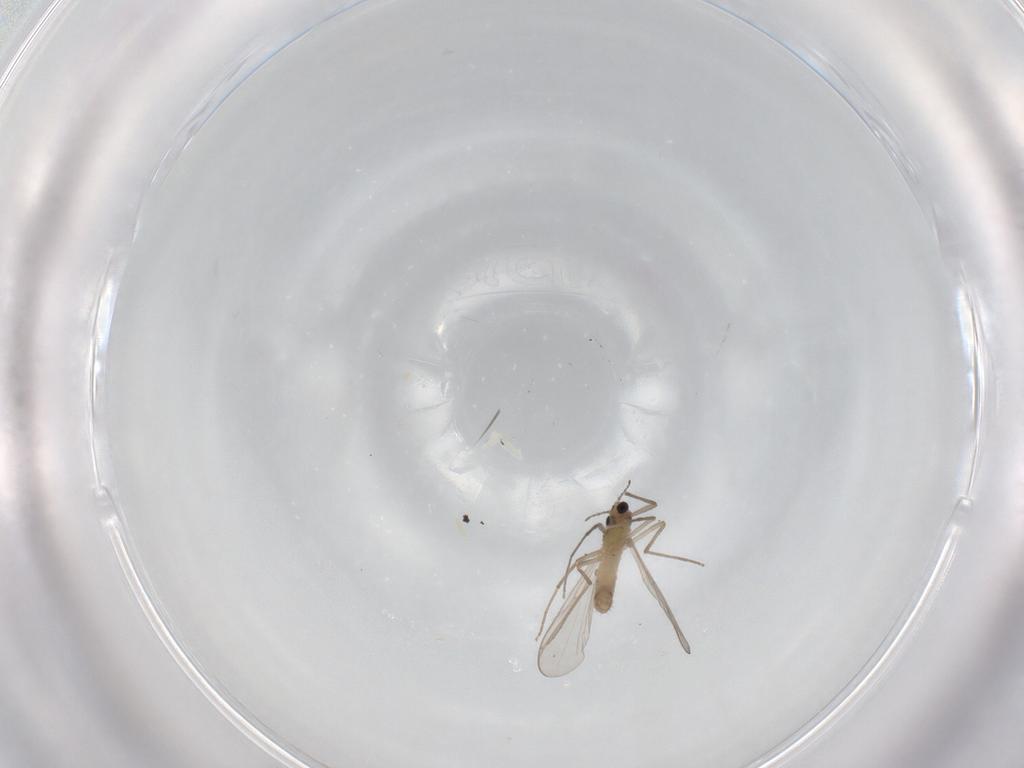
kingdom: Animalia
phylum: Arthropoda
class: Insecta
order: Diptera
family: Chironomidae
